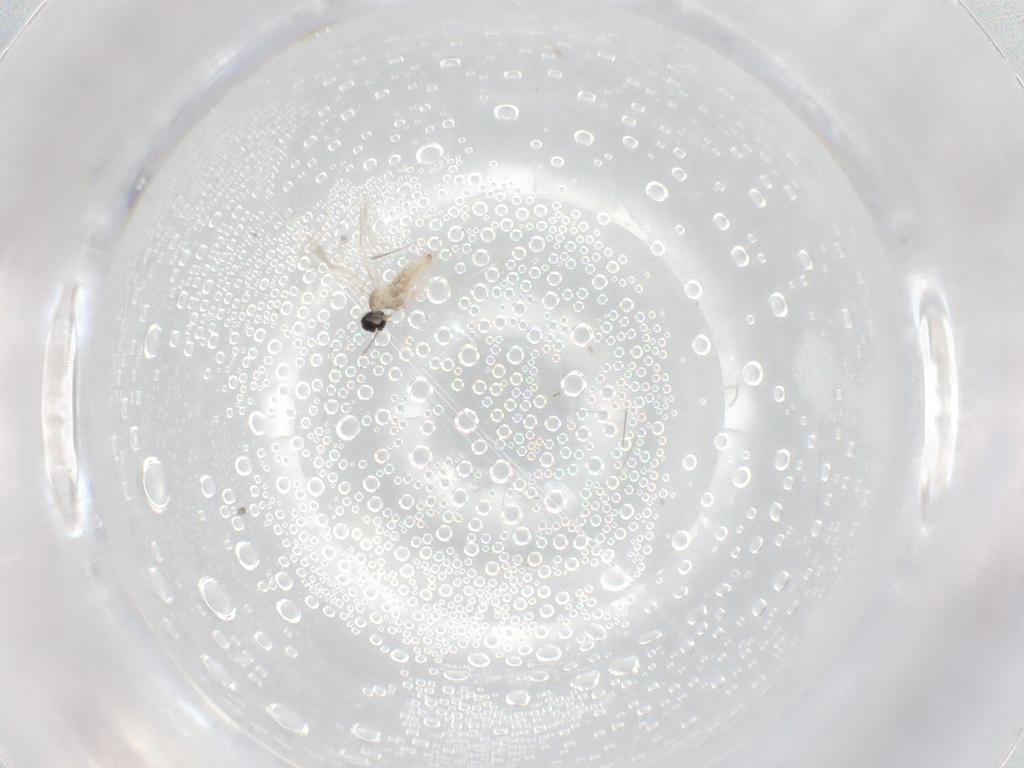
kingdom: Animalia
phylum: Arthropoda
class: Insecta
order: Diptera
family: Cecidomyiidae
